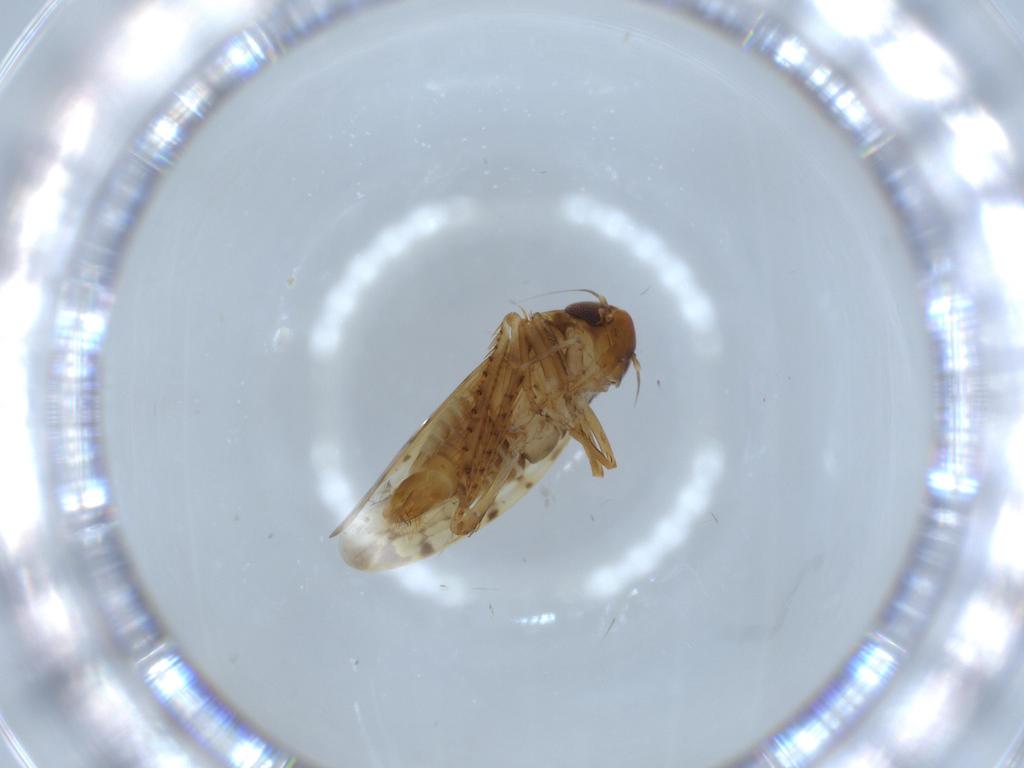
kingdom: Animalia
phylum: Arthropoda
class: Insecta
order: Hemiptera
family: Cicadellidae
